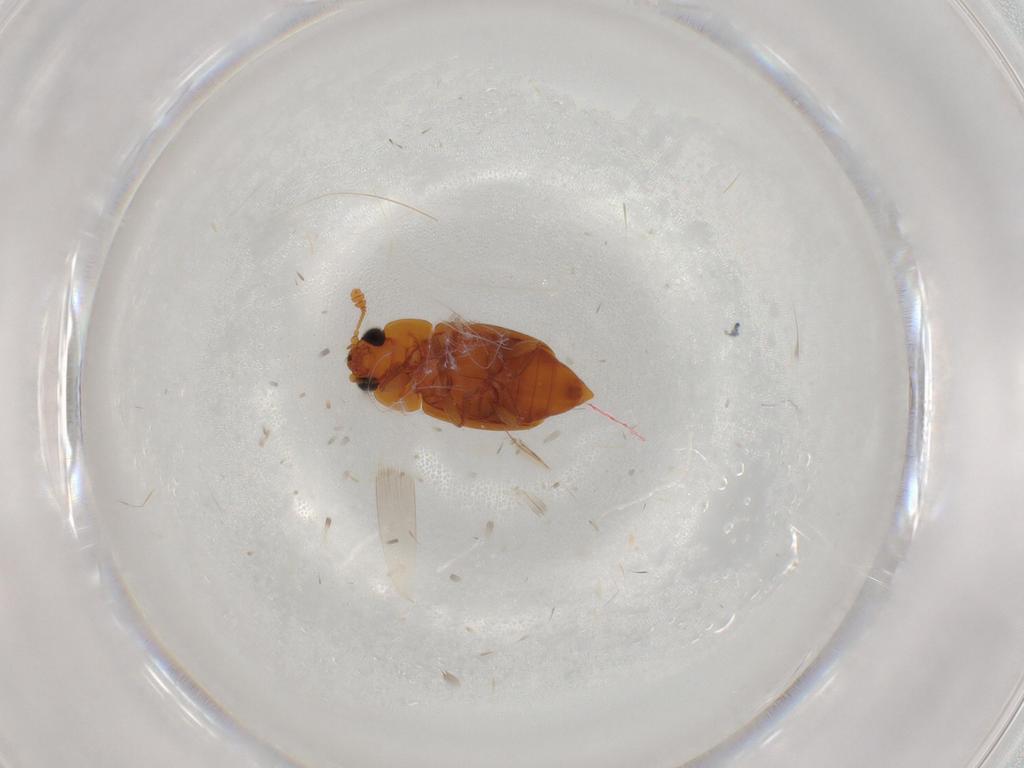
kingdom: Animalia
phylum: Arthropoda
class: Insecta
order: Coleoptera
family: Nitidulidae
